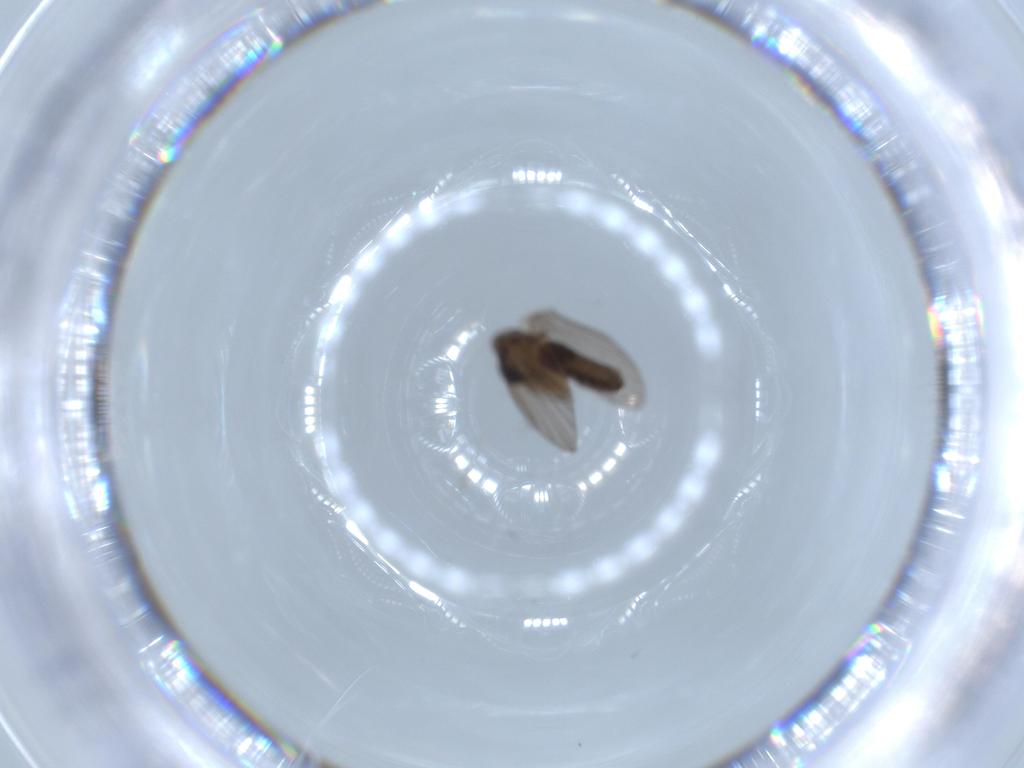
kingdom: Animalia
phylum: Arthropoda
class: Insecta
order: Diptera
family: Psychodidae
